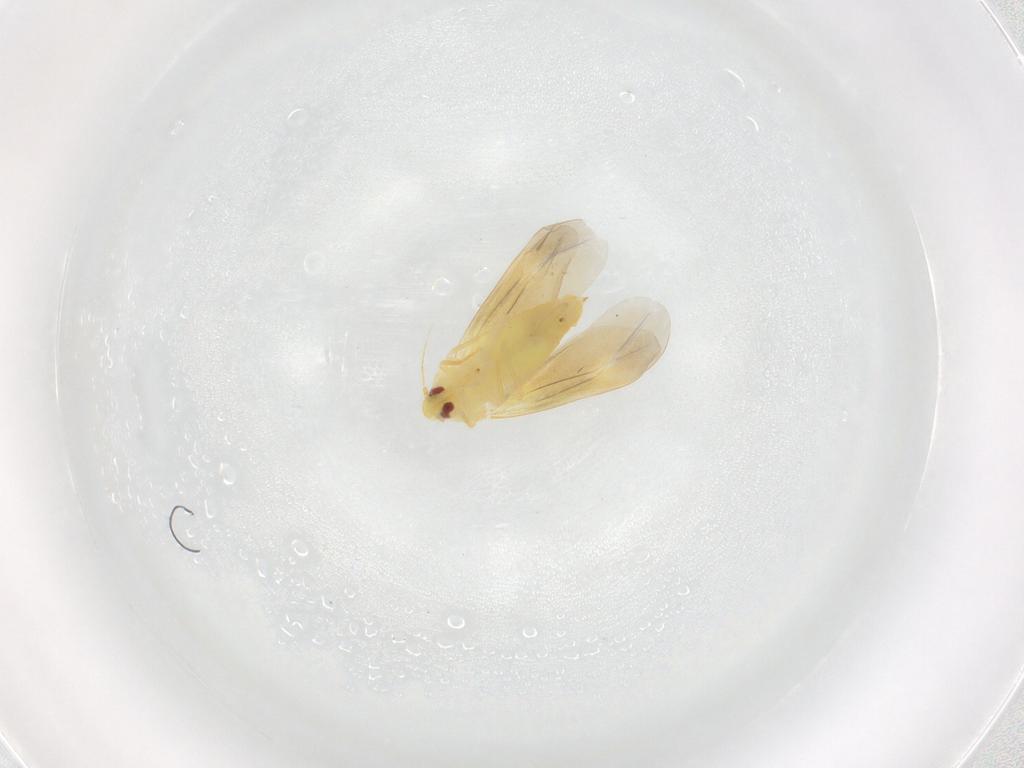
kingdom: Animalia
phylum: Arthropoda
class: Insecta
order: Hemiptera
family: Aleyrodidae
